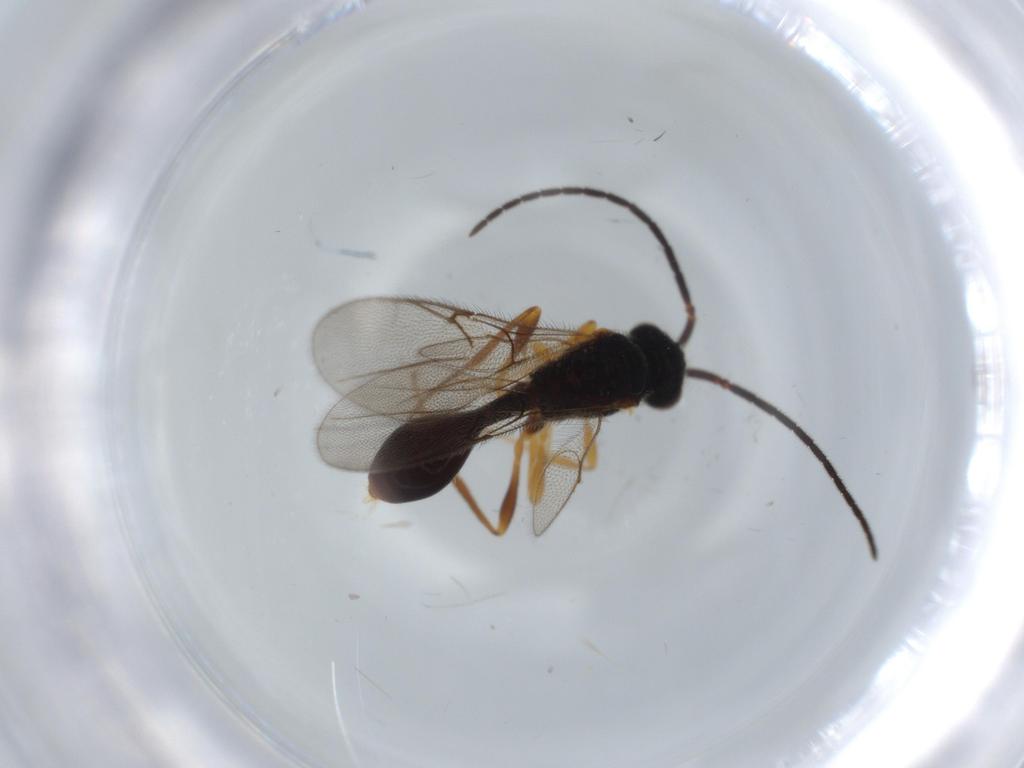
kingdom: Animalia
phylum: Arthropoda
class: Insecta
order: Hymenoptera
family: Diapriidae
